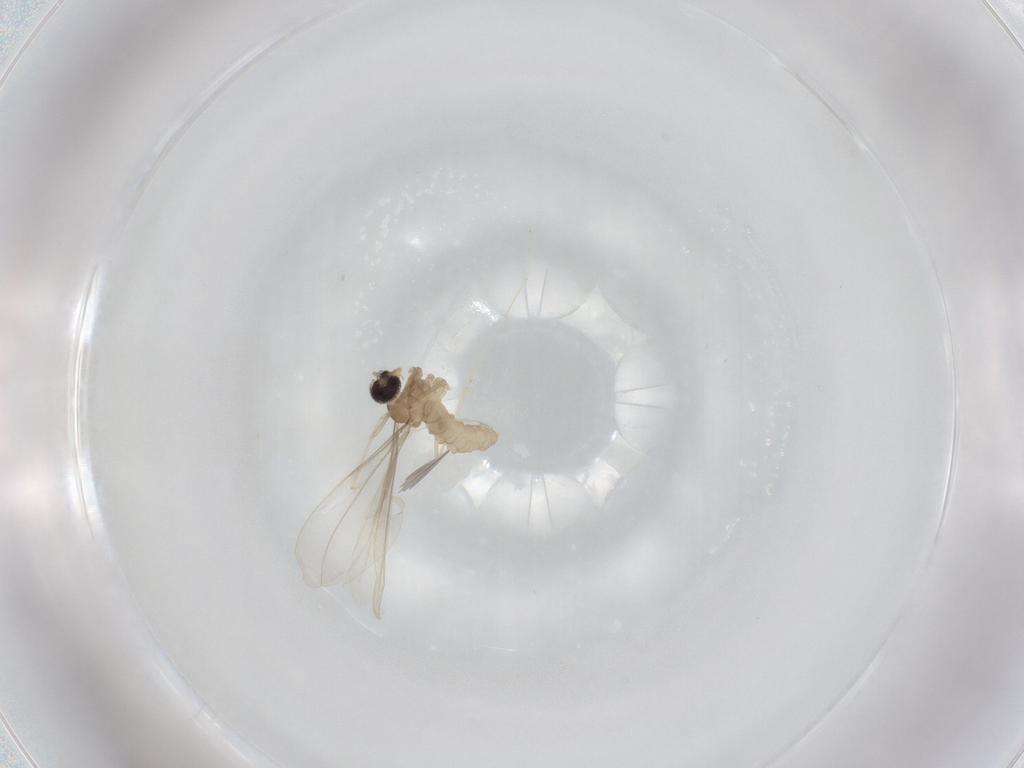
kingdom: Animalia
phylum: Arthropoda
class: Insecta
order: Diptera
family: Cecidomyiidae
